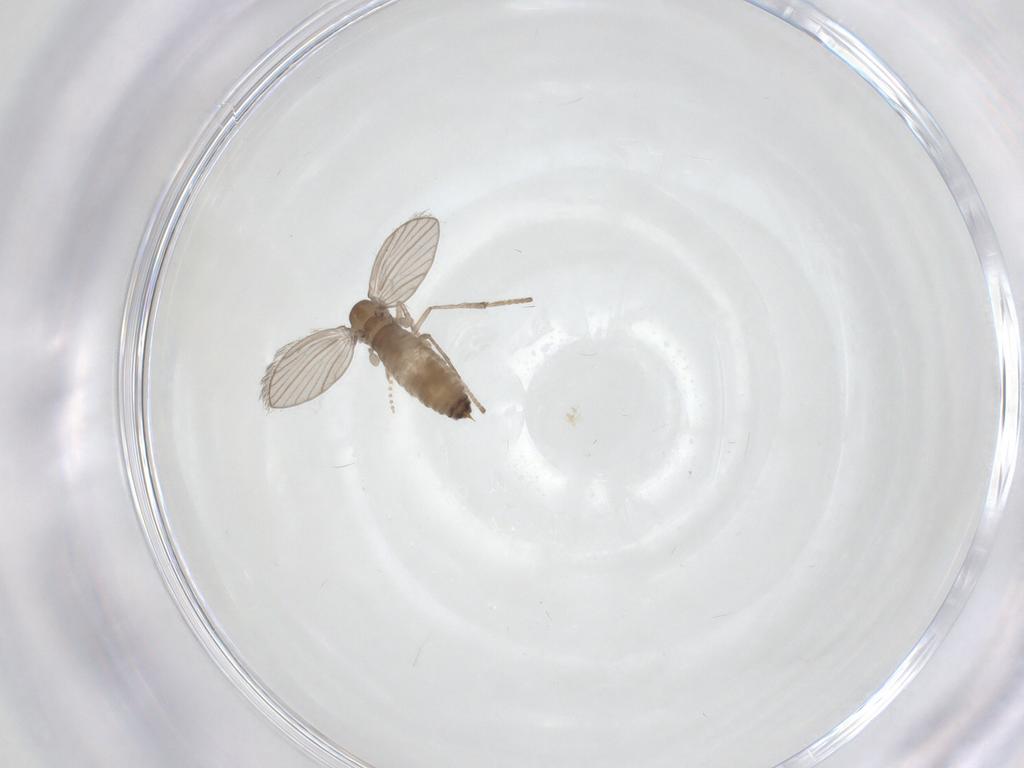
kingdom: Animalia
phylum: Arthropoda
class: Insecta
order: Diptera
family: Psychodidae
